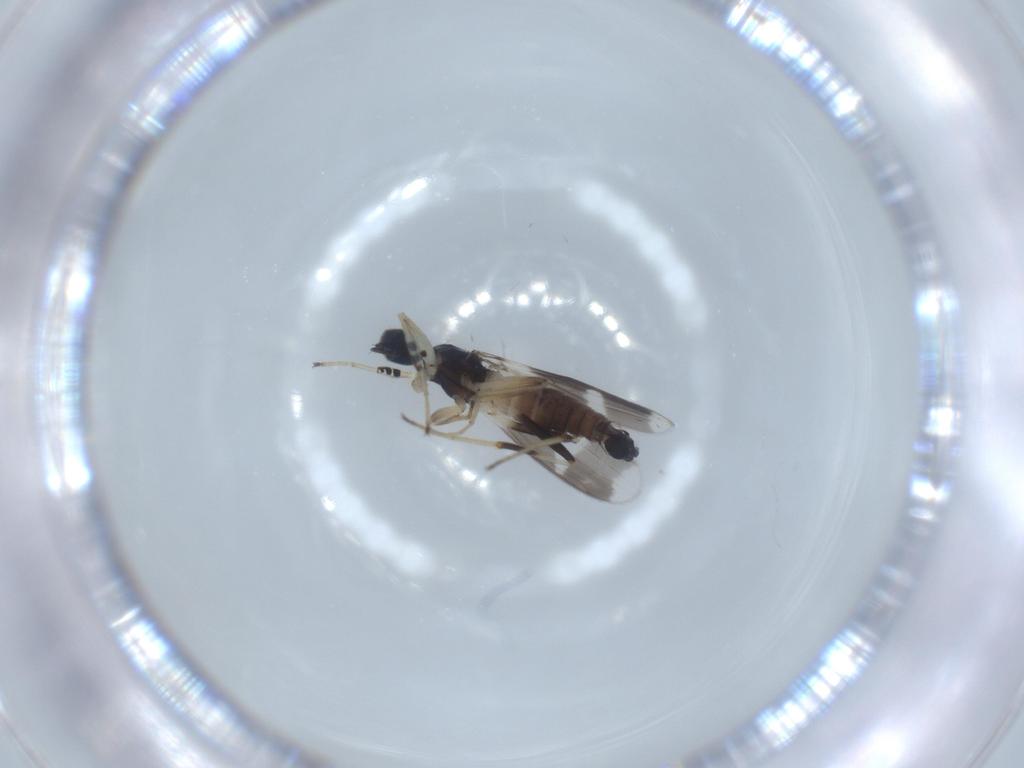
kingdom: Animalia
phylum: Arthropoda
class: Insecta
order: Diptera
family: Hybotidae
